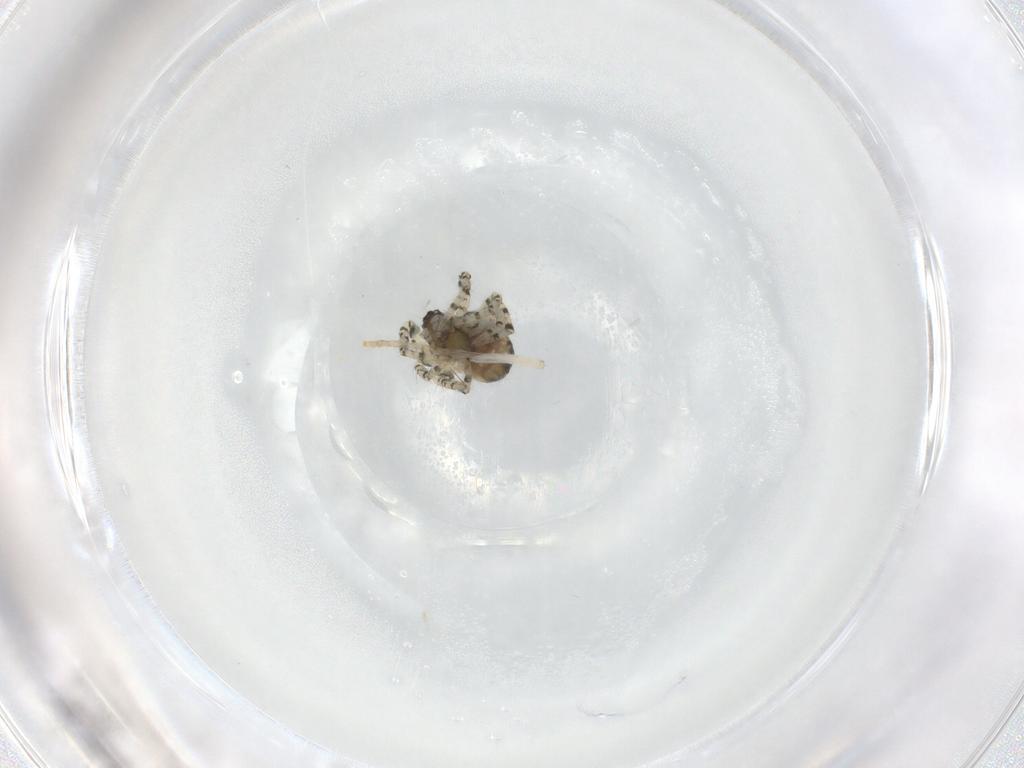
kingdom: Animalia
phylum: Arthropoda
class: Arachnida
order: Araneae
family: Theridiidae
